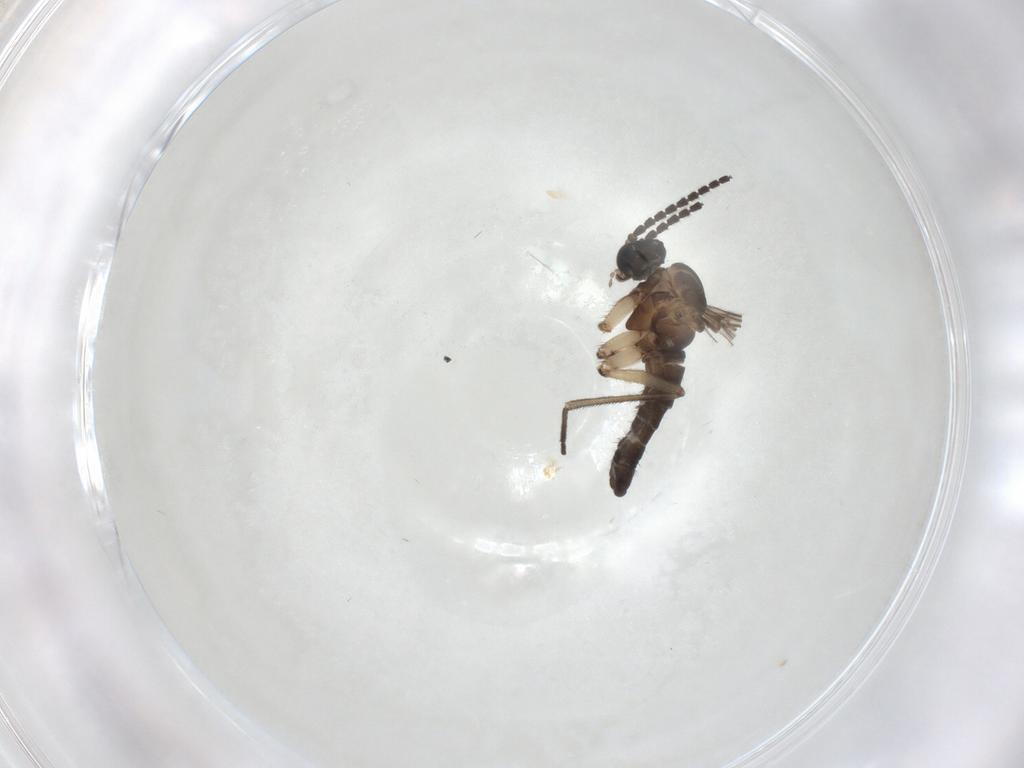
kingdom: Animalia
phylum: Arthropoda
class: Insecta
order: Diptera
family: Sciaridae
